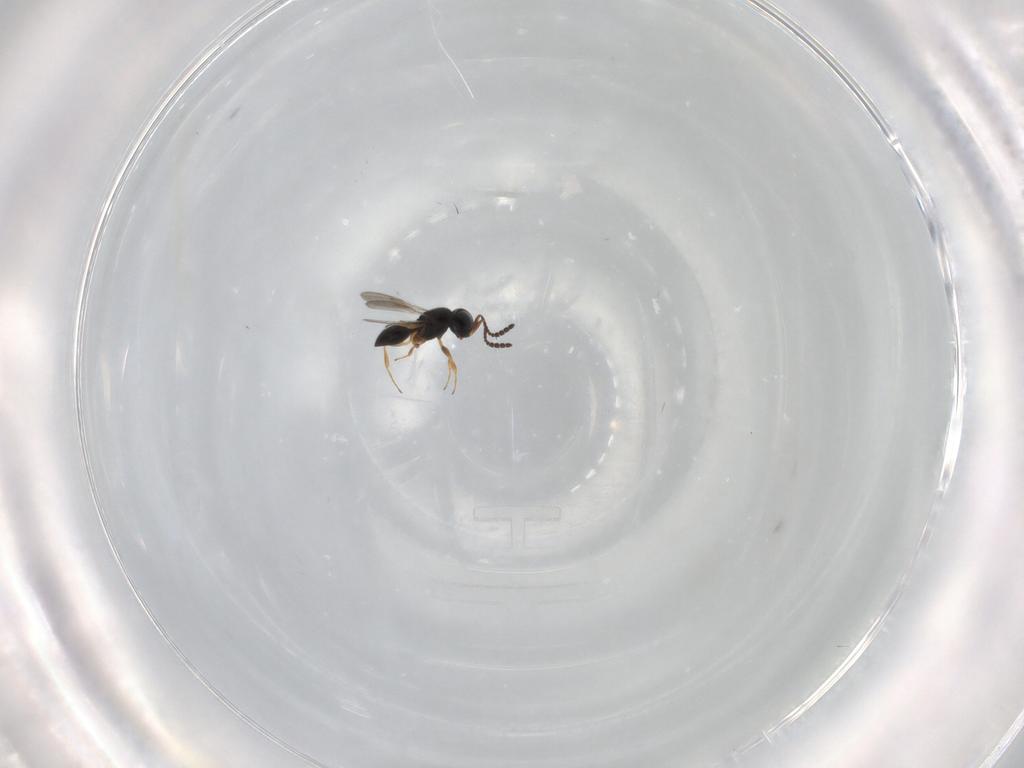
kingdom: Animalia
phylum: Arthropoda
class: Insecta
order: Hymenoptera
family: Scelionidae
